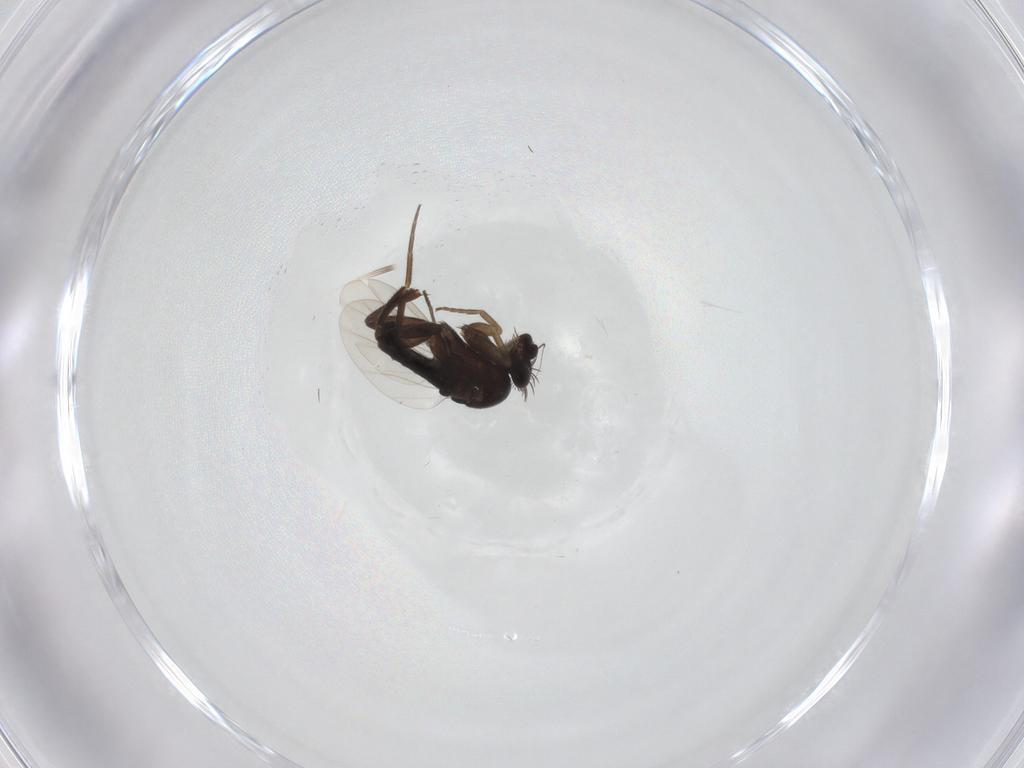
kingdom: Animalia
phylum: Arthropoda
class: Insecta
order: Diptera
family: Phoridae
